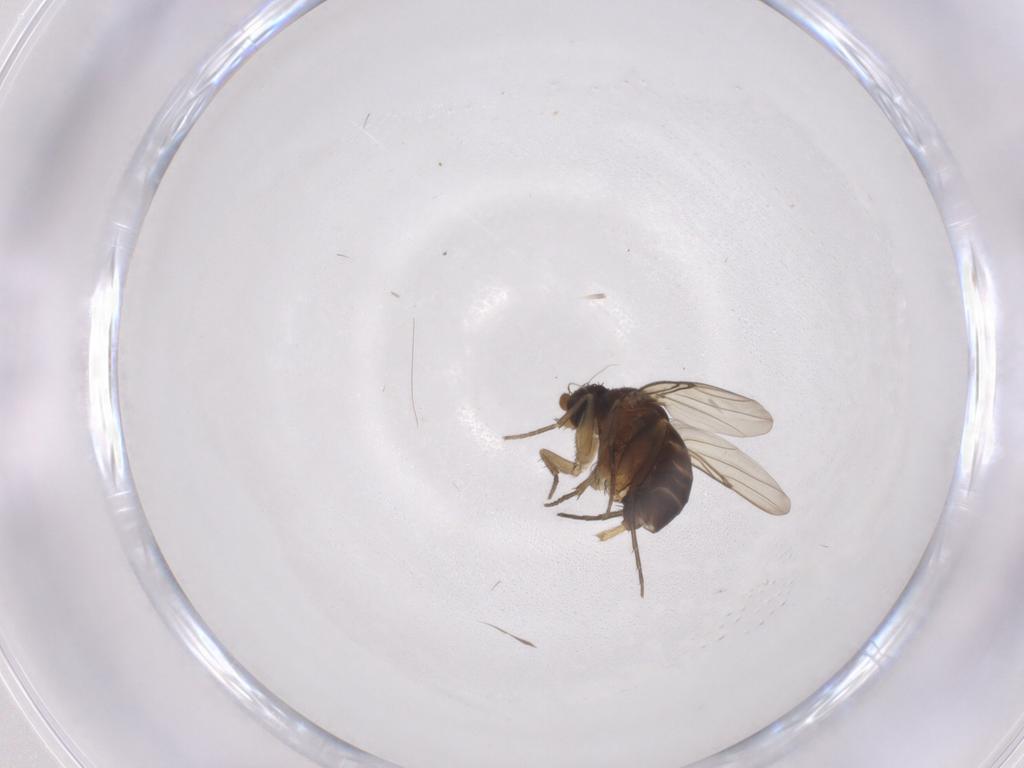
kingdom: Animalia
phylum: Arthropoda
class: Insecta
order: Diptera
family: Phoridae
